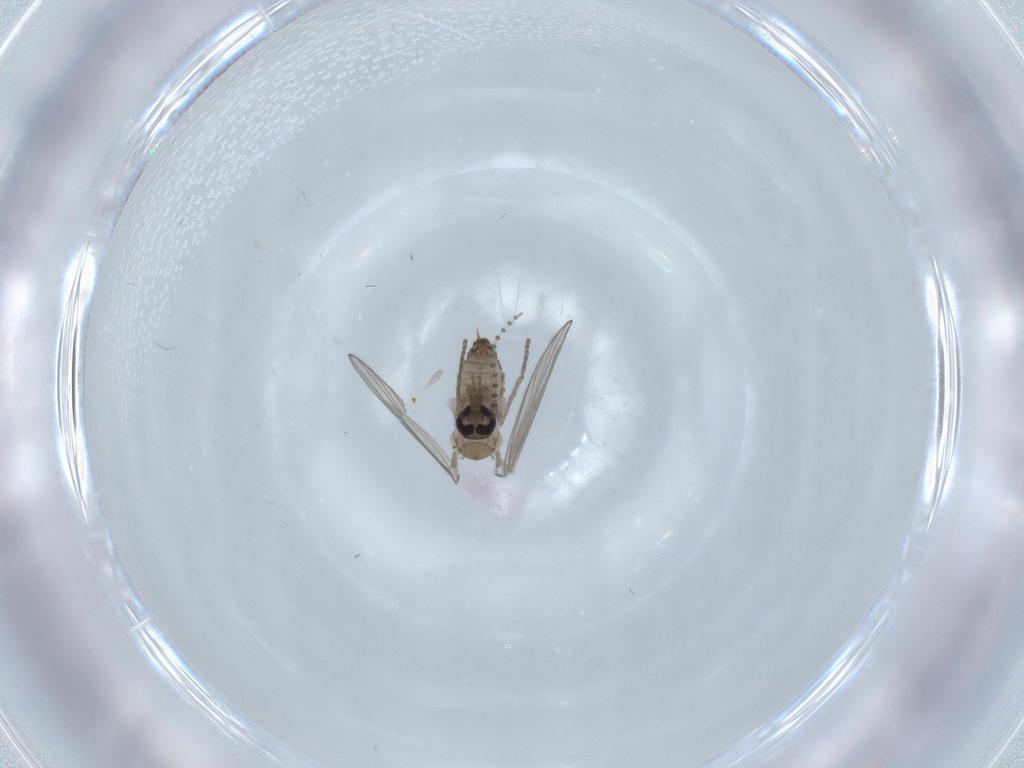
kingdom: Animalia
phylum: Arthropoda
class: Insecta
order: Diptera
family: Psychodidae
